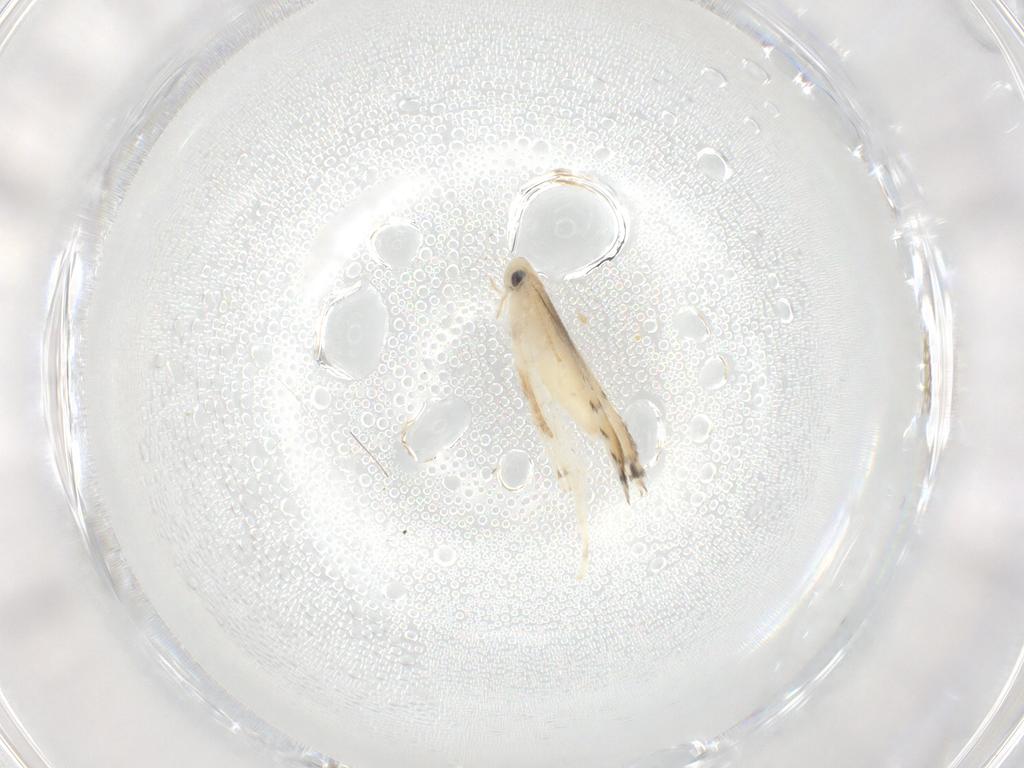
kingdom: Animalia
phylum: Arthropoda
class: Insecta
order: Lepidoptera
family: Gracillariidae
